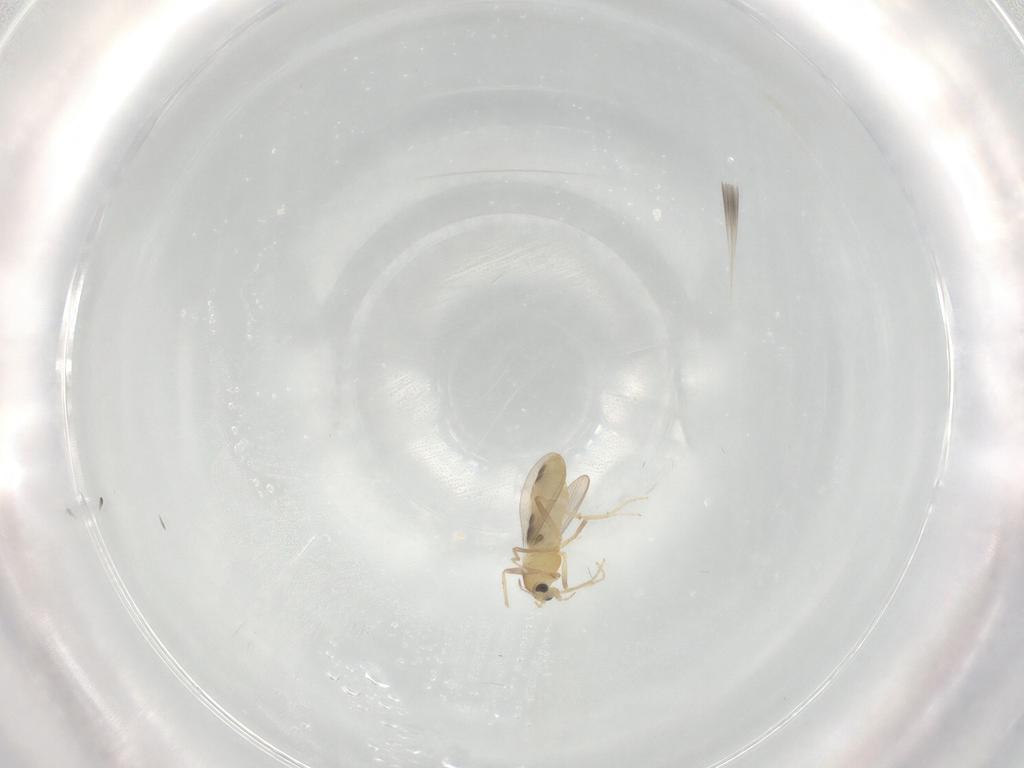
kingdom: Animalia
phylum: Arthropoda
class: Insecta
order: Diptera
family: Chironomidae
